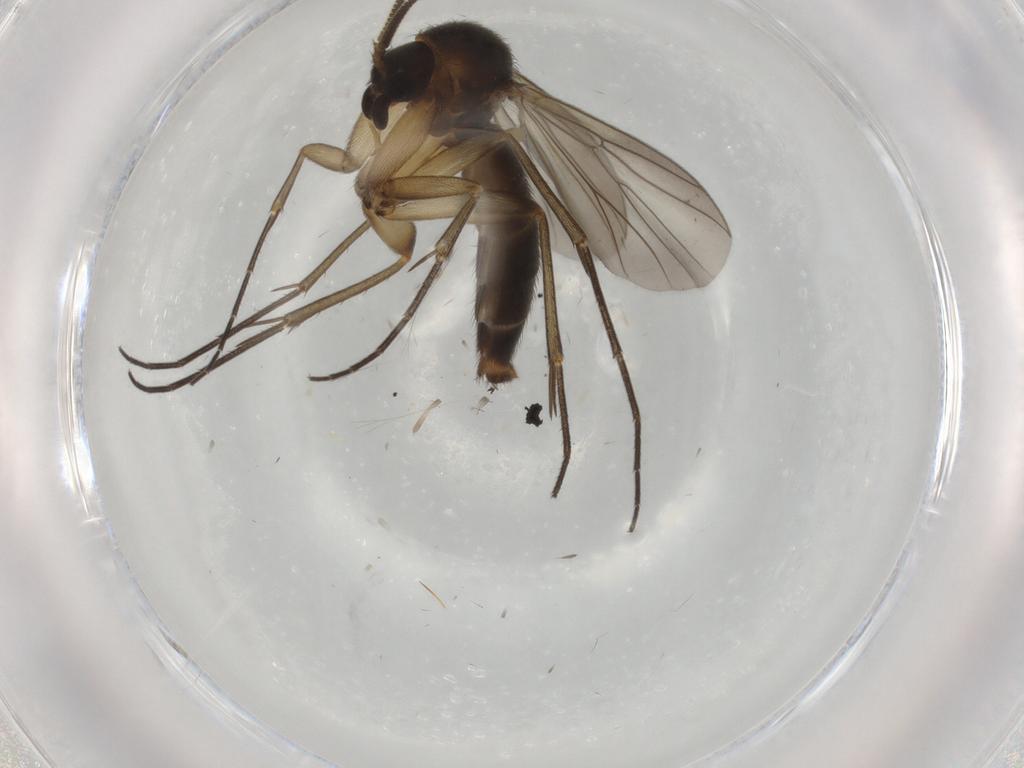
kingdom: Animalia
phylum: Arthropoda
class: Insecta
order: Diptera
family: Mycetophilidae
